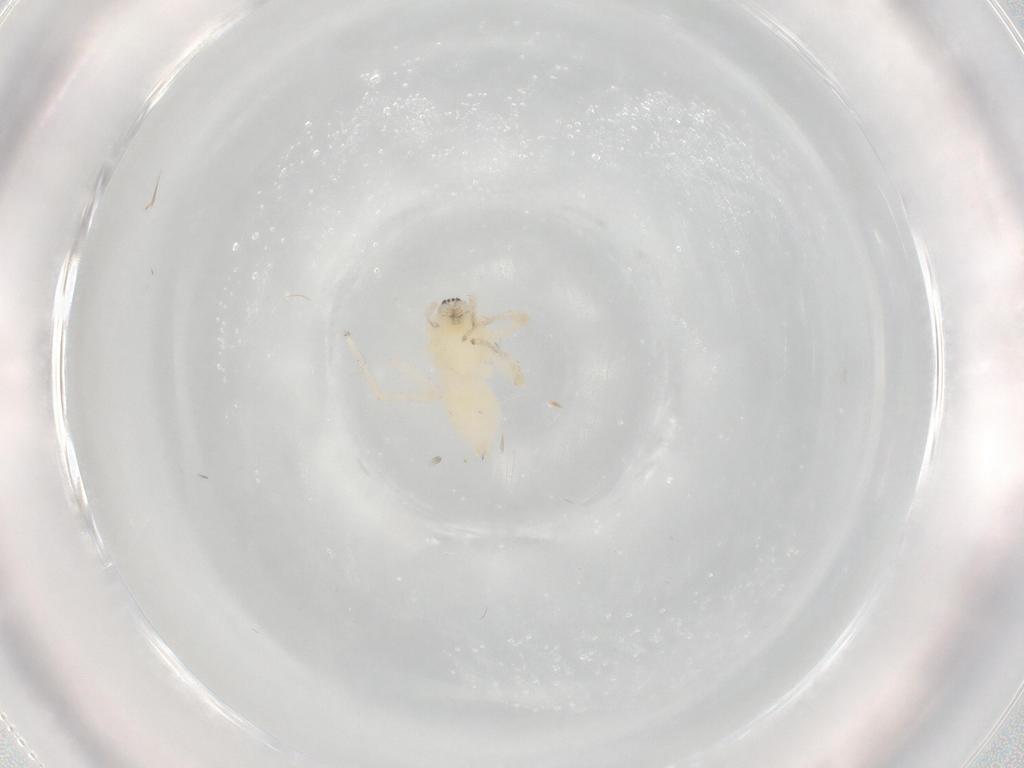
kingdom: Animalia
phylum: Arthropoda
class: Arachnida
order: Araneae
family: Anyphaenidae
